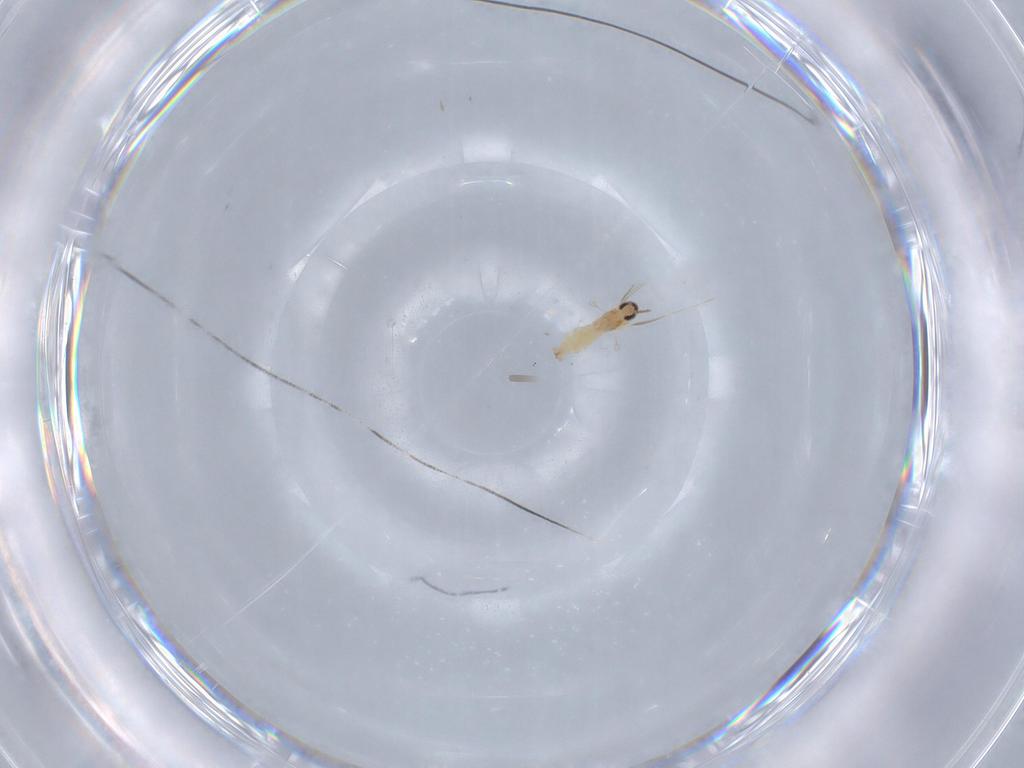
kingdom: Animalia
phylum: Arthropoda
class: Insecta
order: Diptera
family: Cecidomyiidae
